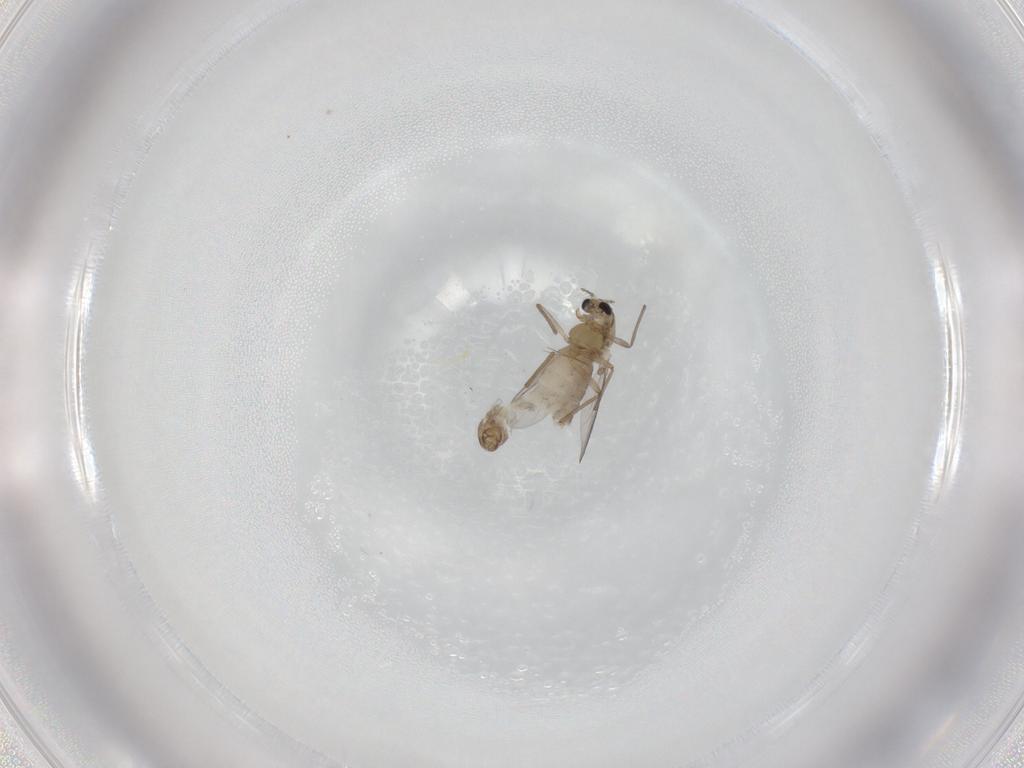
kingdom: Animalia
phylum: Arthropoda
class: Insecta
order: Diptera
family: Chironomidae
